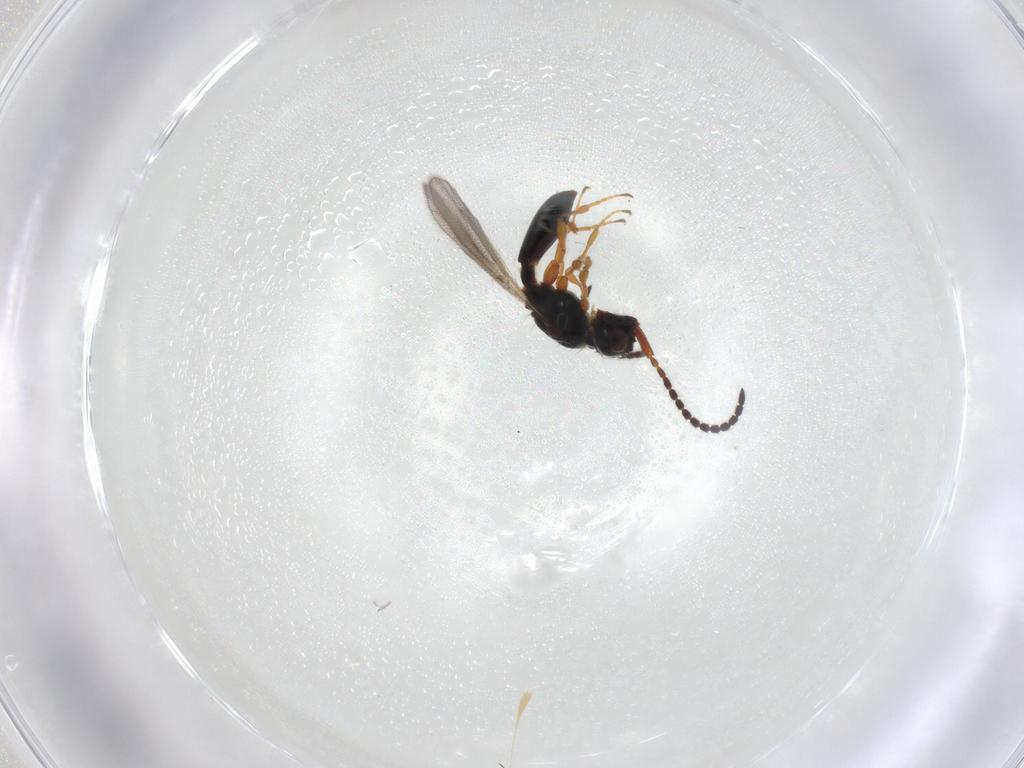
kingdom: Animalia
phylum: Arthropoda
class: Insecta
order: Hymenoptera
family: Diapriidae
